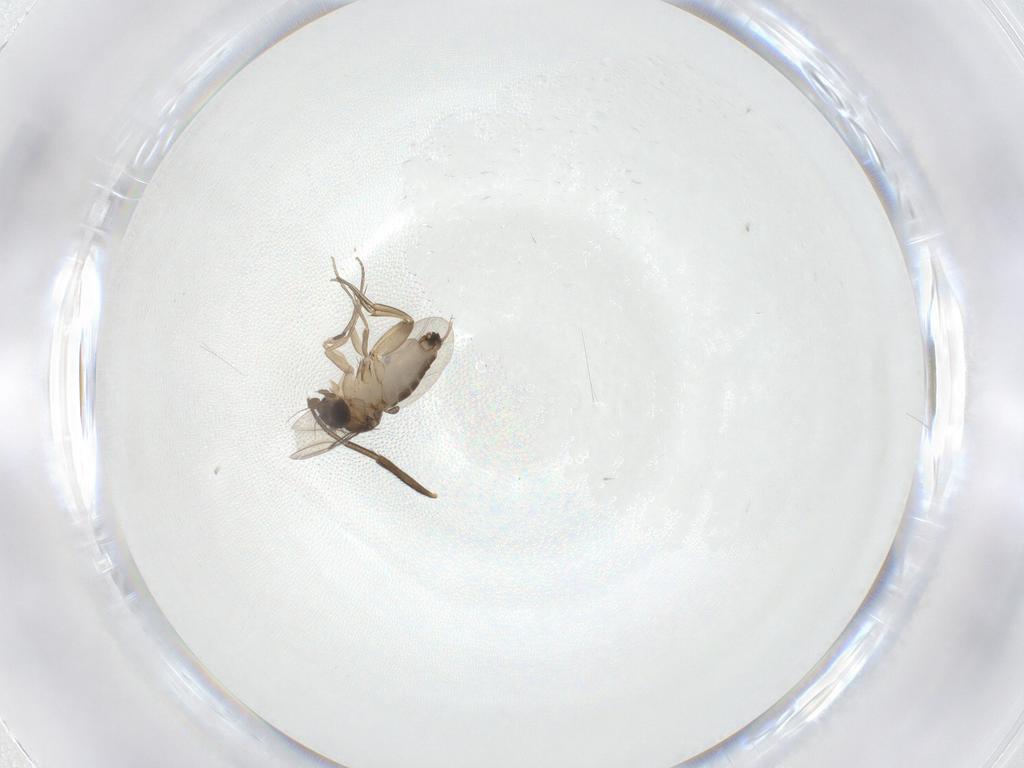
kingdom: Animalia
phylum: Arthropoda
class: Insecta
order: Diptera
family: Phoridae
